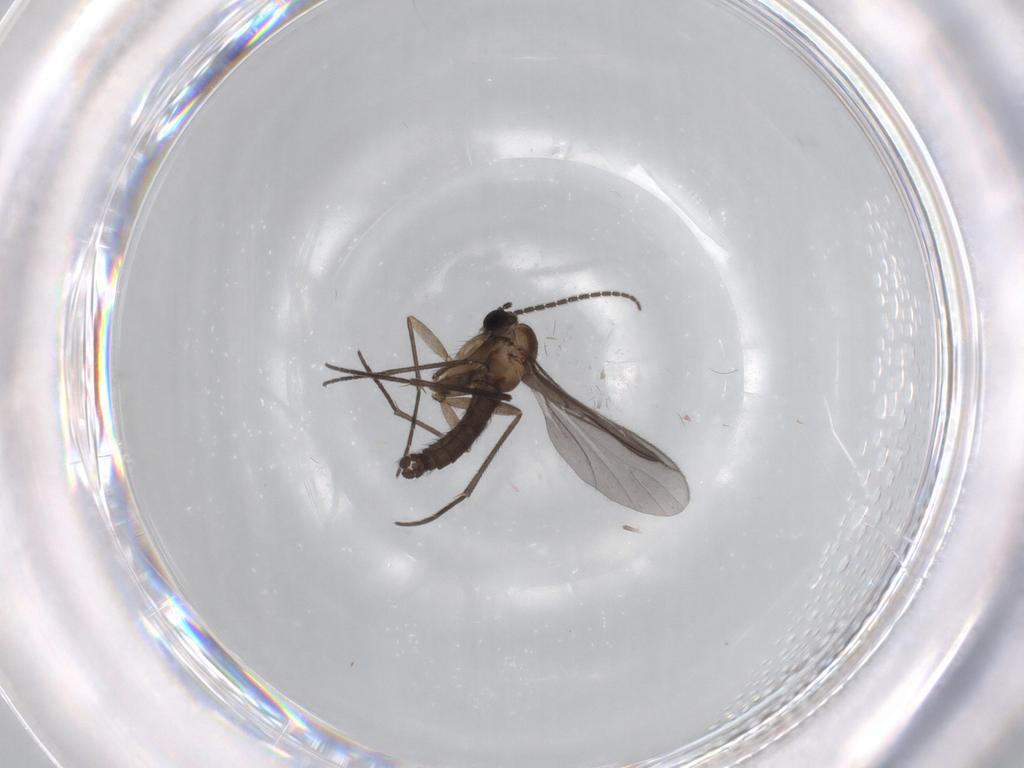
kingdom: Animalia
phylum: Arthropoda
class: Insecta
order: Diptera
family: Sciaridae
